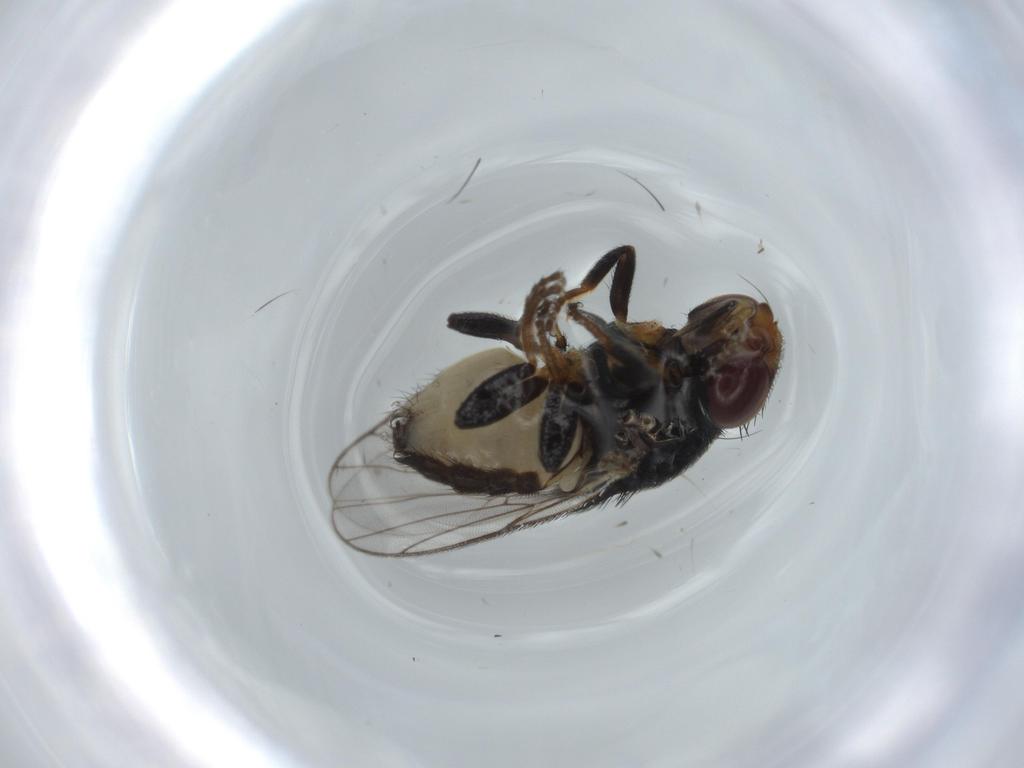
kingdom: Animalia
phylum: Arthropoda
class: Insecta
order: Diptera
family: Chloropidae
